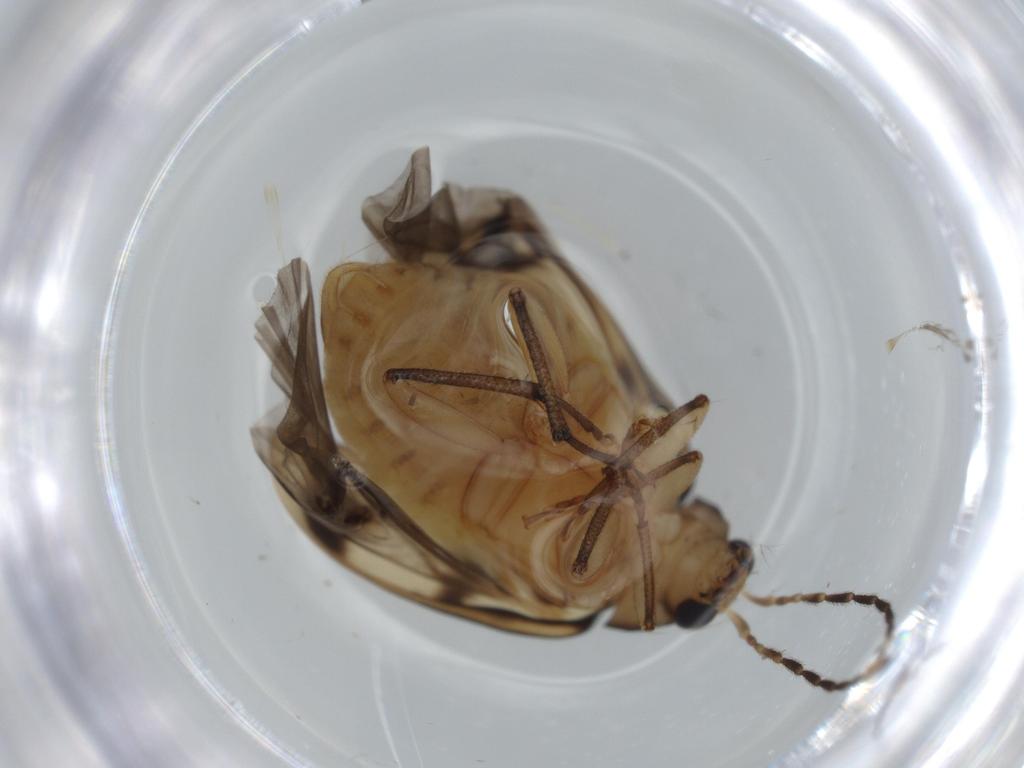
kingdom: Animalia
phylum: Arthropoda
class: Insecta
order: Coleoptera
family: Chrysomelidae
